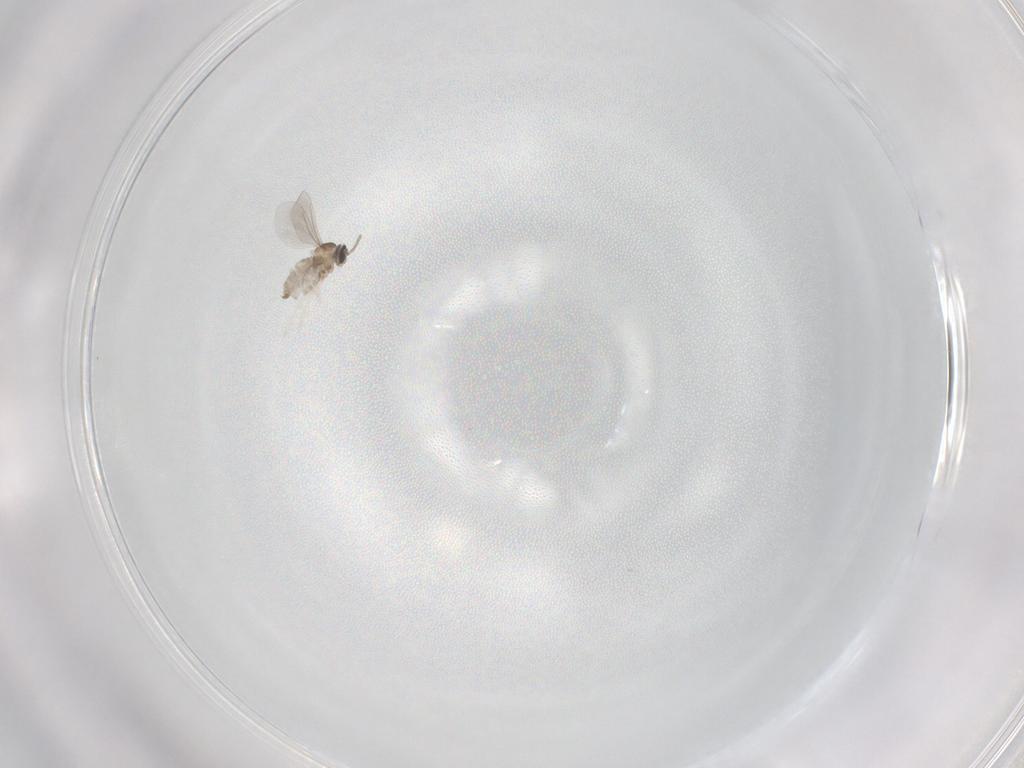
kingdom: Animalia
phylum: Arthropoda
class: Insecta
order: Diptera
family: Cecidomyiidae
